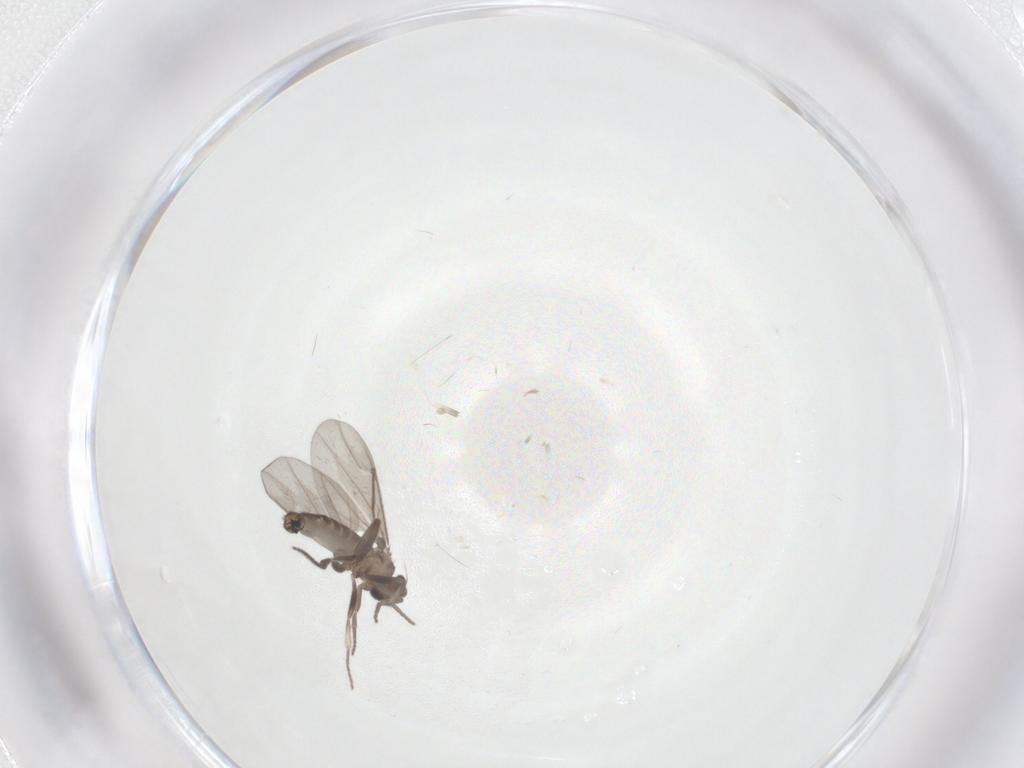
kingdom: Animalia
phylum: Arthropoda
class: Insecta
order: Diptera
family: Phoridae
